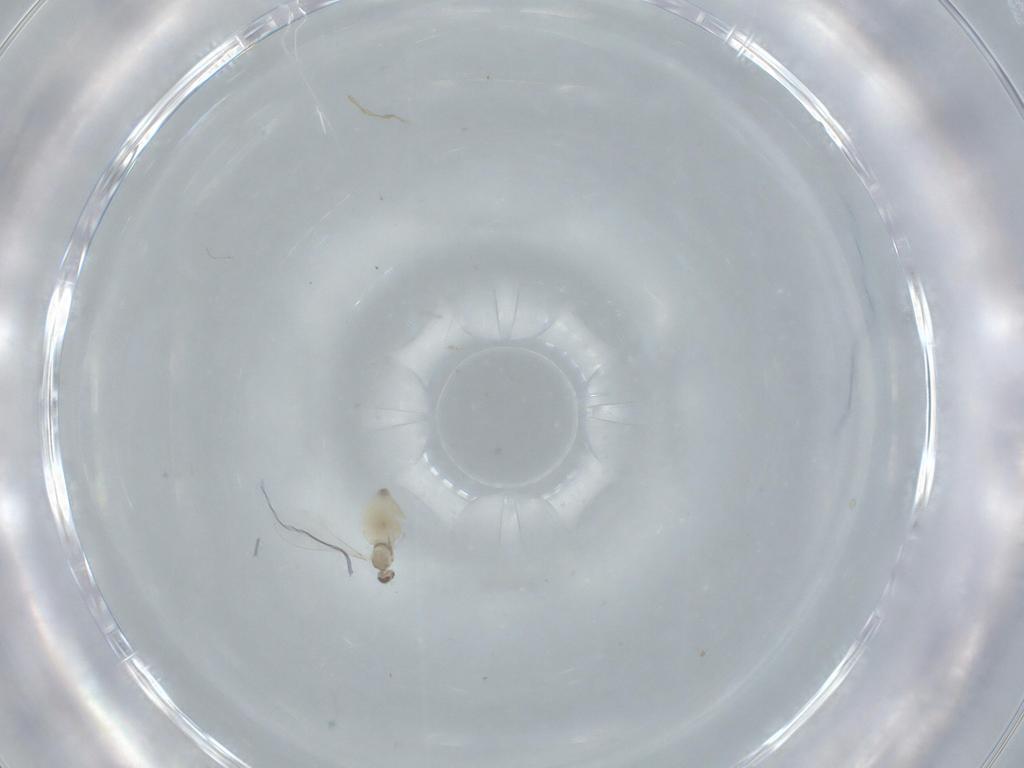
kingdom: Animalia
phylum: Arthropoda
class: Insecta
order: Diptera
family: Cecidomyiidae
